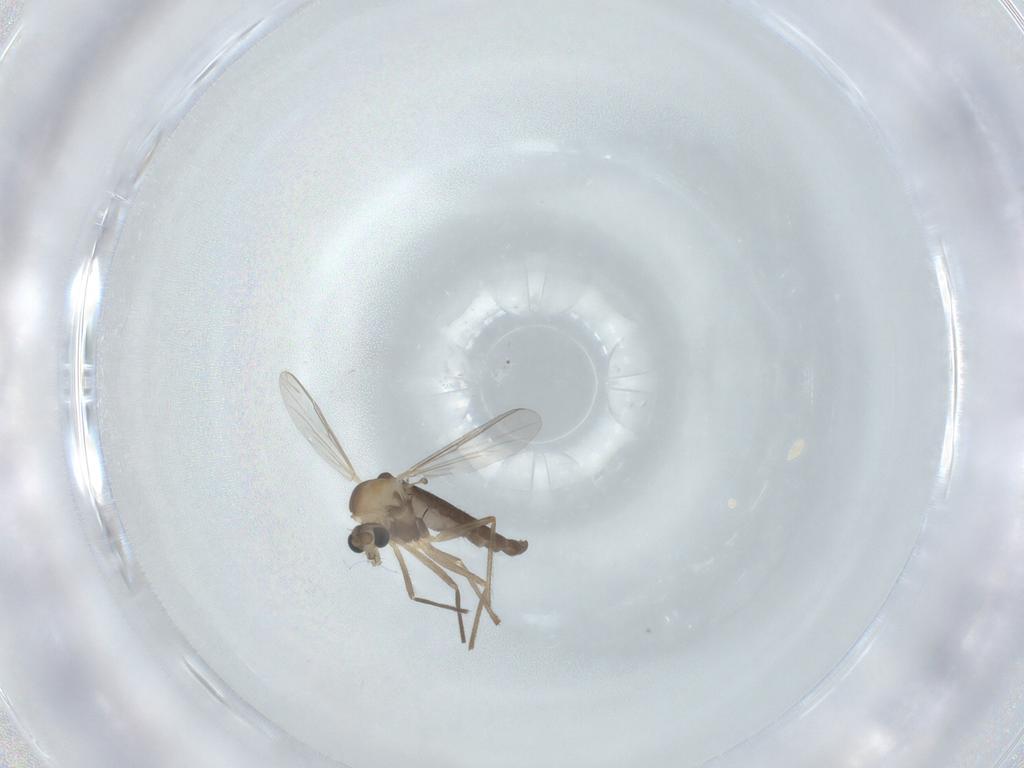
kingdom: Animalia
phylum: Arthropoda
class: Insecta
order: Diptera
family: Chironomidae
